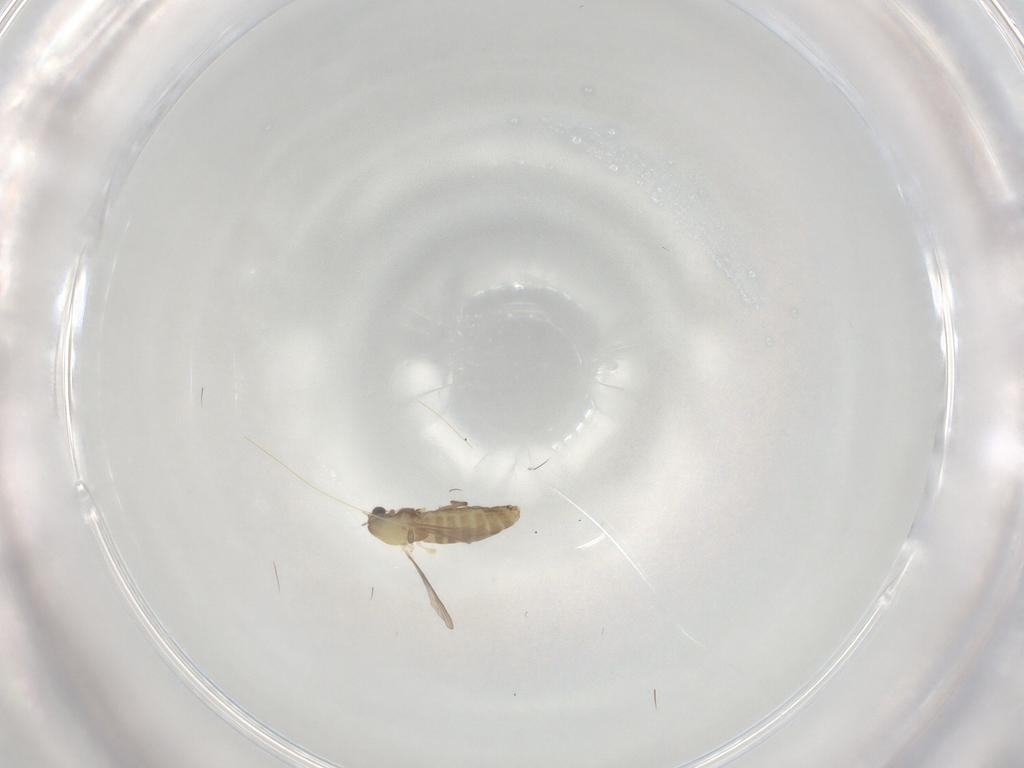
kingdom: Animalia
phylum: Arthropoda
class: Insecta
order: Diptera
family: Chironomidae
